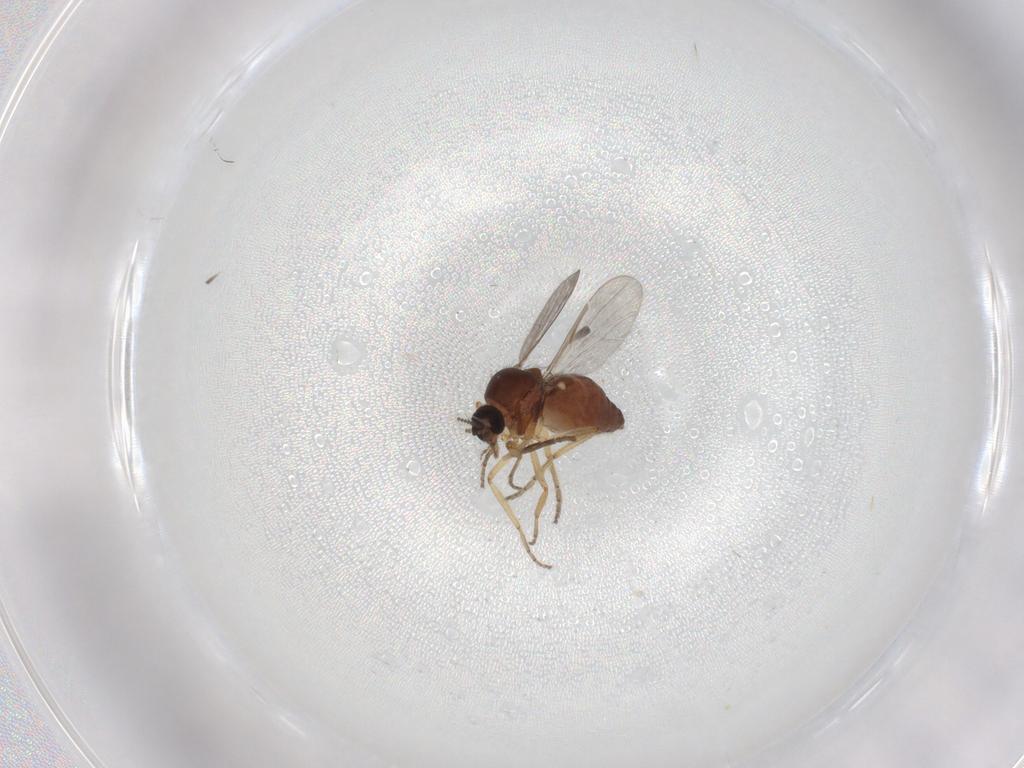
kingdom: Animalia
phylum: Arthropoda
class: Insecta
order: Diptera
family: Ceratopogonidae
